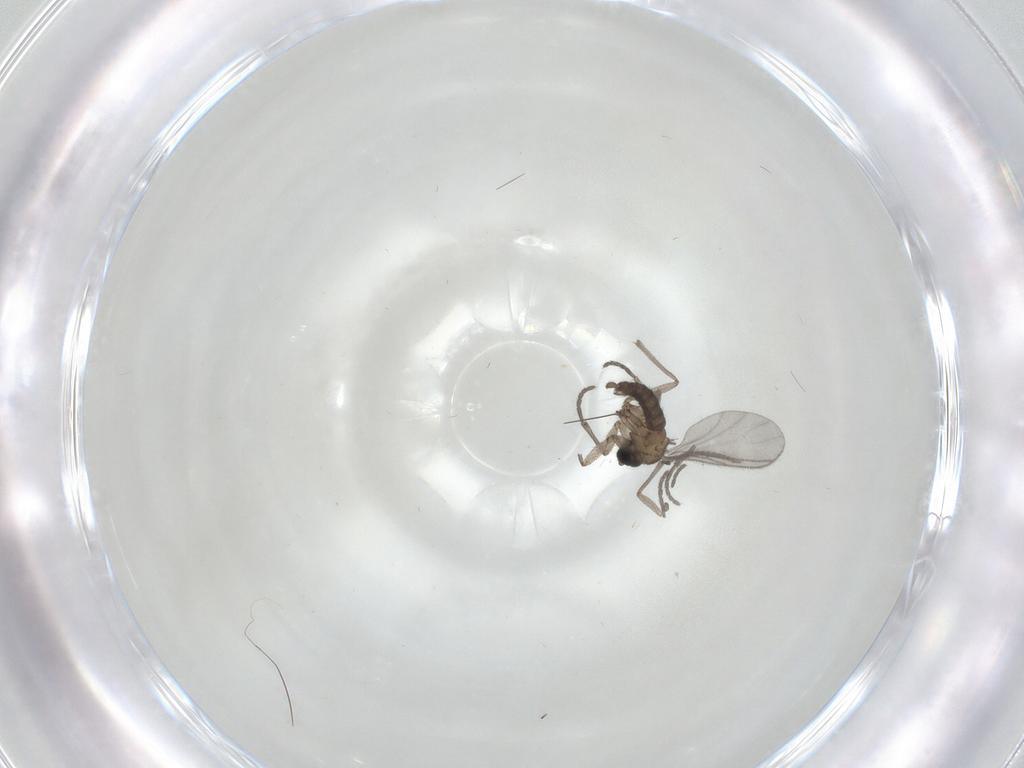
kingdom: Animalia
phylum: Arthropoda
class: Insecta
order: Diptera
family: Sciaridae
